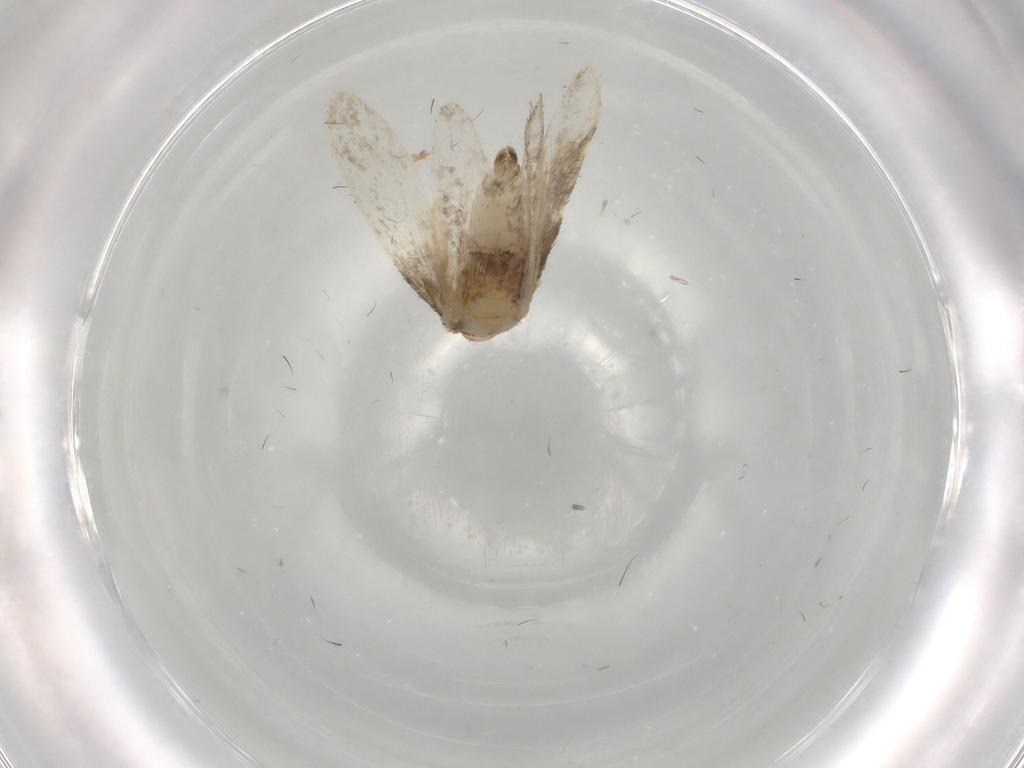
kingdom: Animalia
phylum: Arthropoda
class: Insecta
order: Lepidoptera
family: Psychidae
